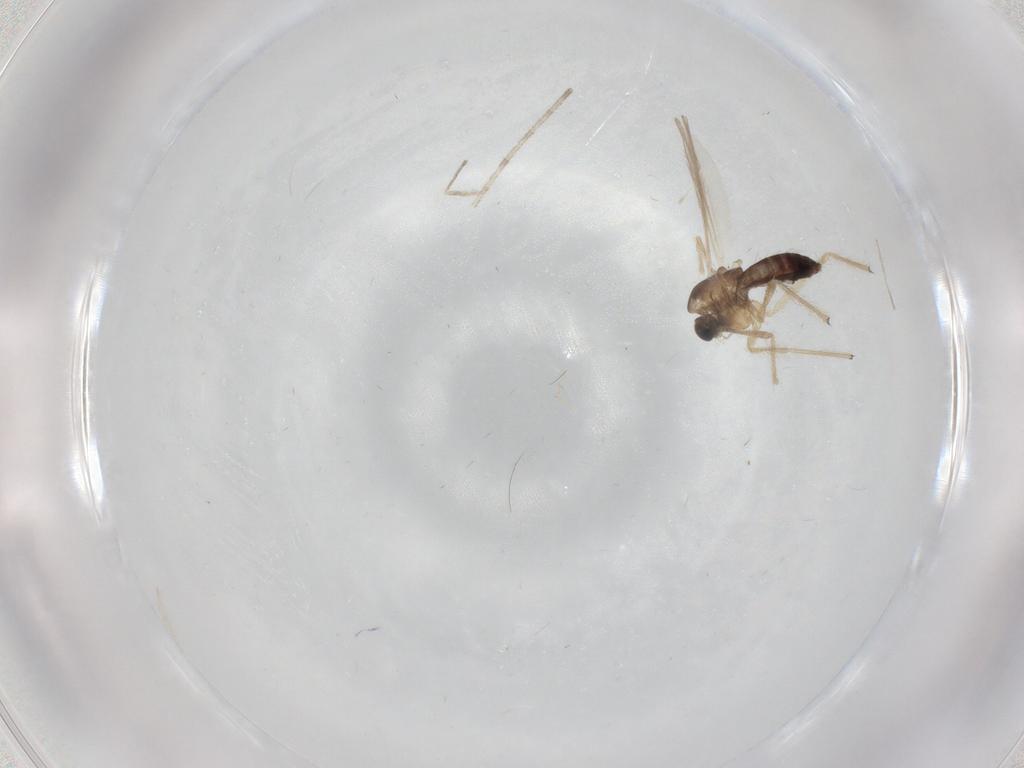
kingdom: Animalia
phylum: Arthropoda
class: Insecta
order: Diptera
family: Chironomidae
